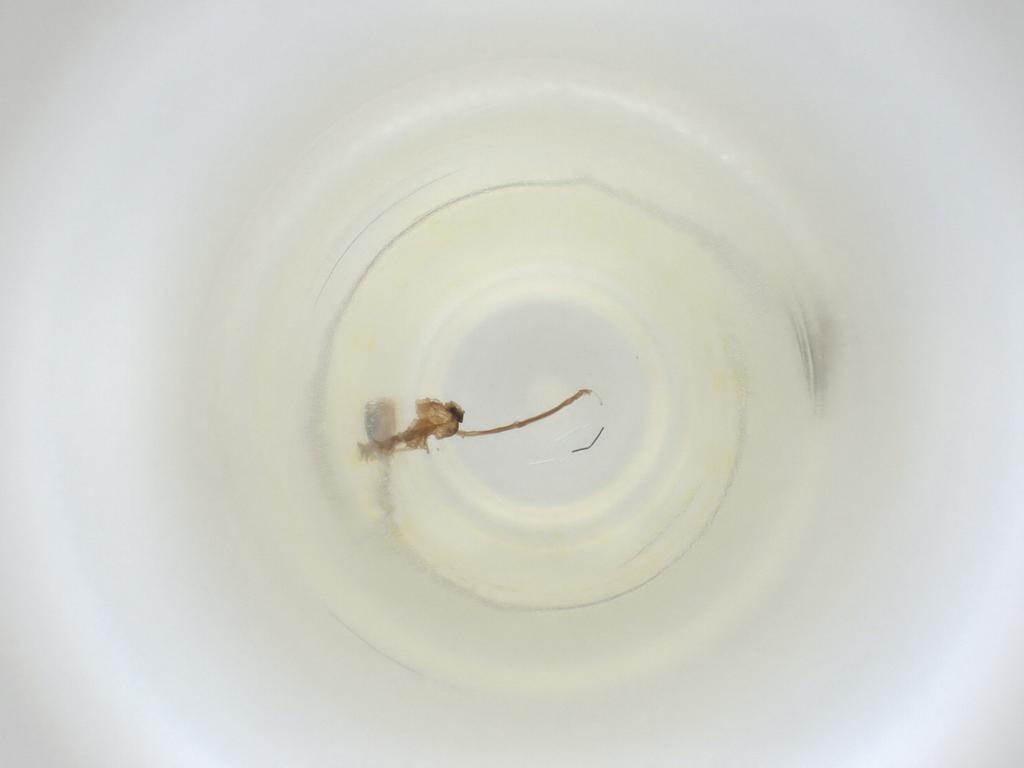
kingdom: Animalia
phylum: Arthropoda
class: Insecta
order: Diptera
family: Cecidomyiidae
